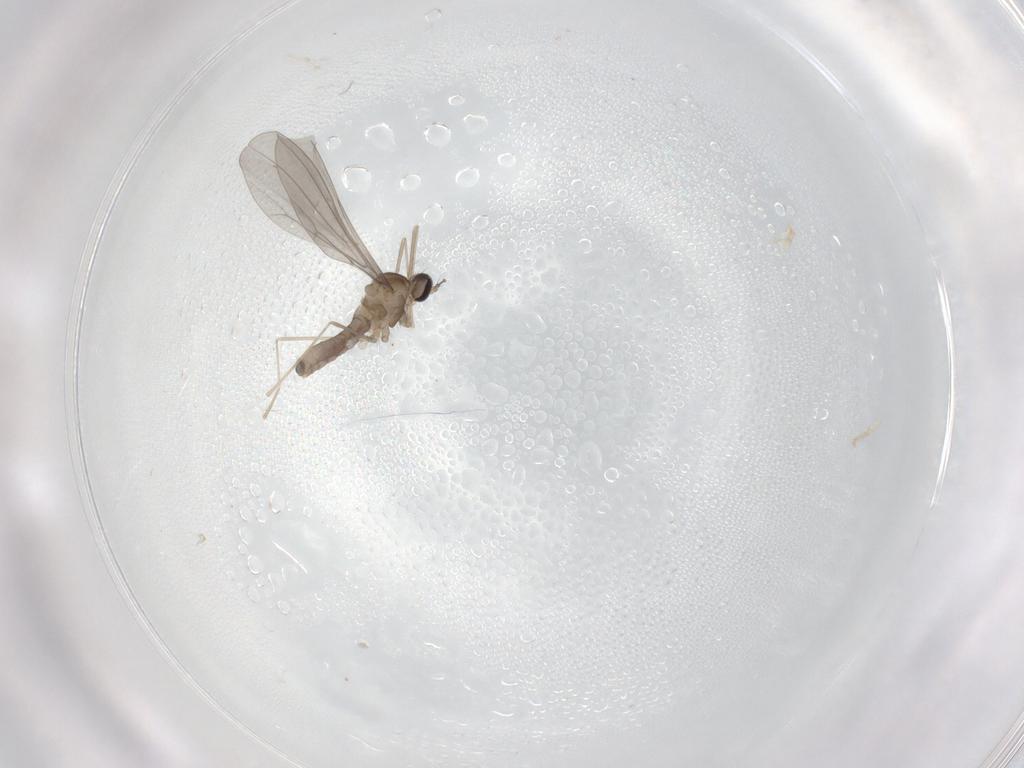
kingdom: Animalia
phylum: Arthropoda
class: Insecta
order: Diptera
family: Cecidomyiidae
